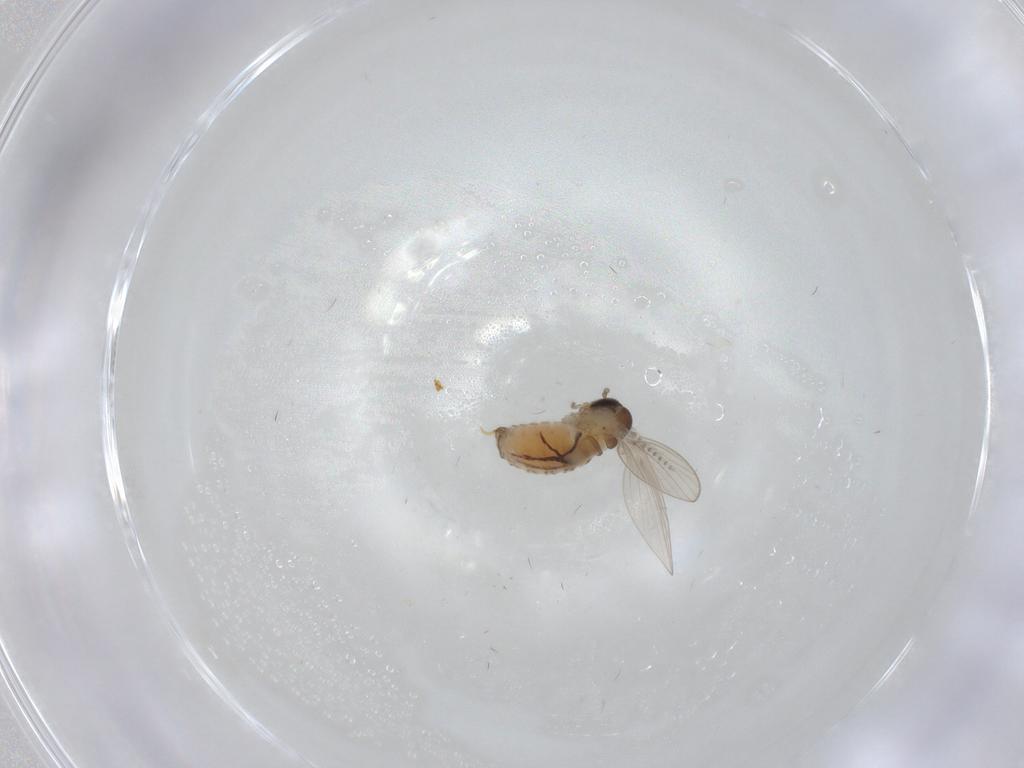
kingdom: Animalia
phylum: Arthropoda
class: Insecta
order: Diptera
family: Psychodidae
